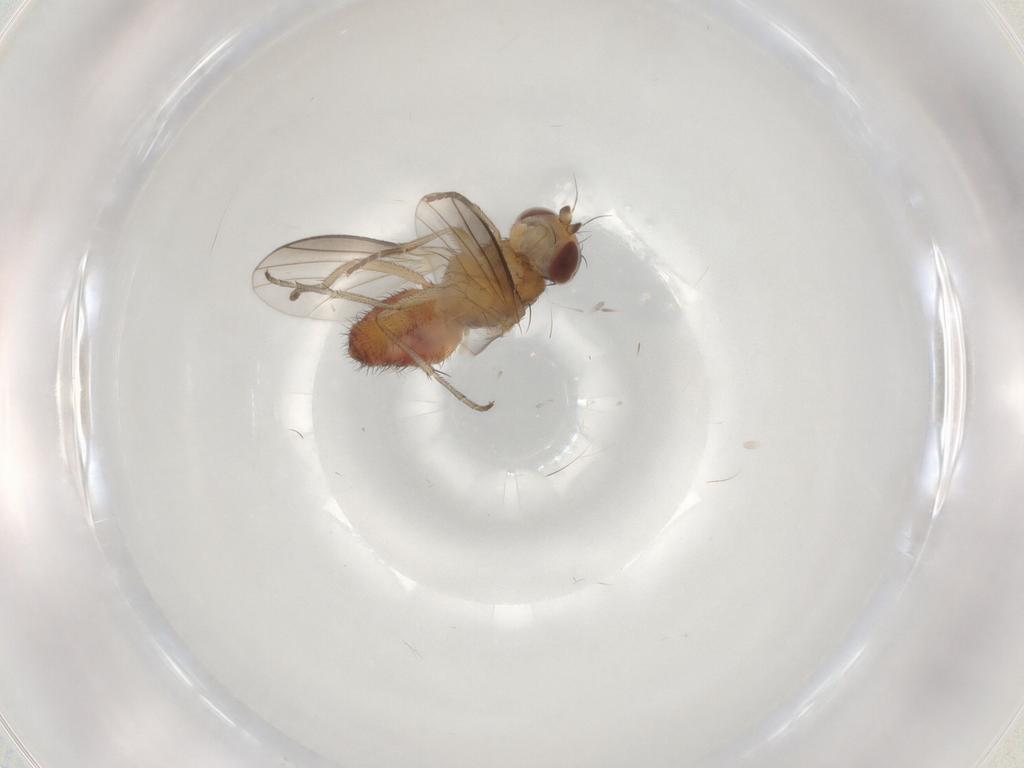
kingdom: Animalia
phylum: Arthropoda
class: Insecta
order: Diptera
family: Heleomyzidae
